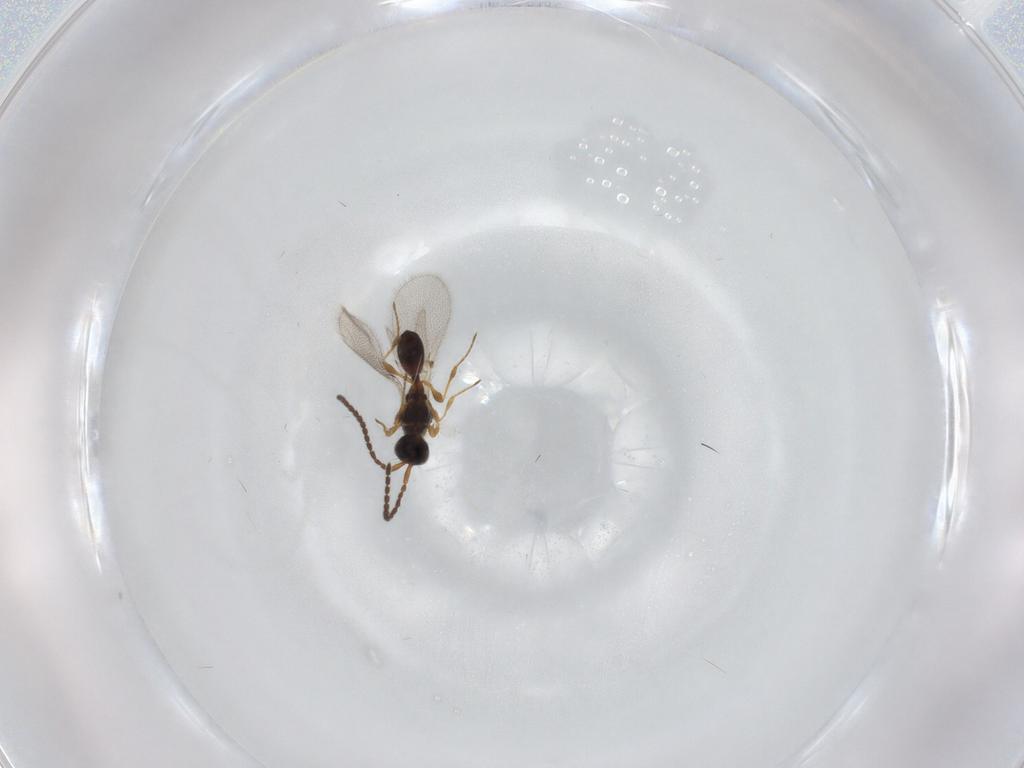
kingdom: Animalia
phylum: Arthropoda
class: Insecta
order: Hymenoptera
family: Diapriidae
